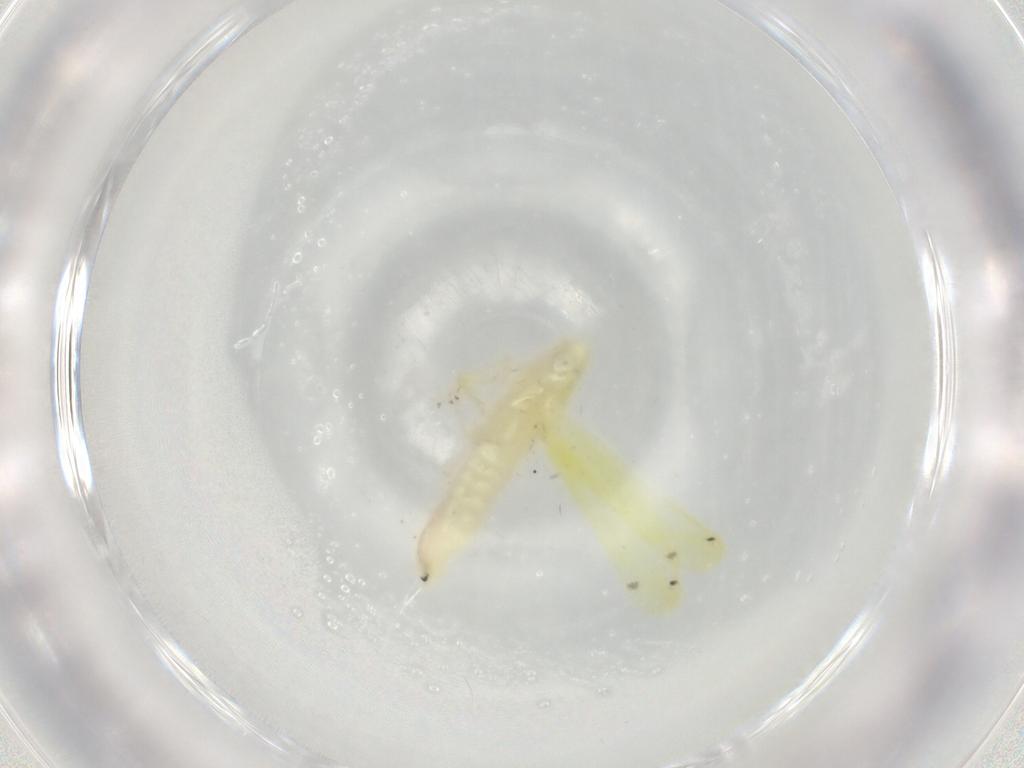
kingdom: Animalia
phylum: Arthropoda
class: Insecta
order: Hemiptera
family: Cicadellidae
